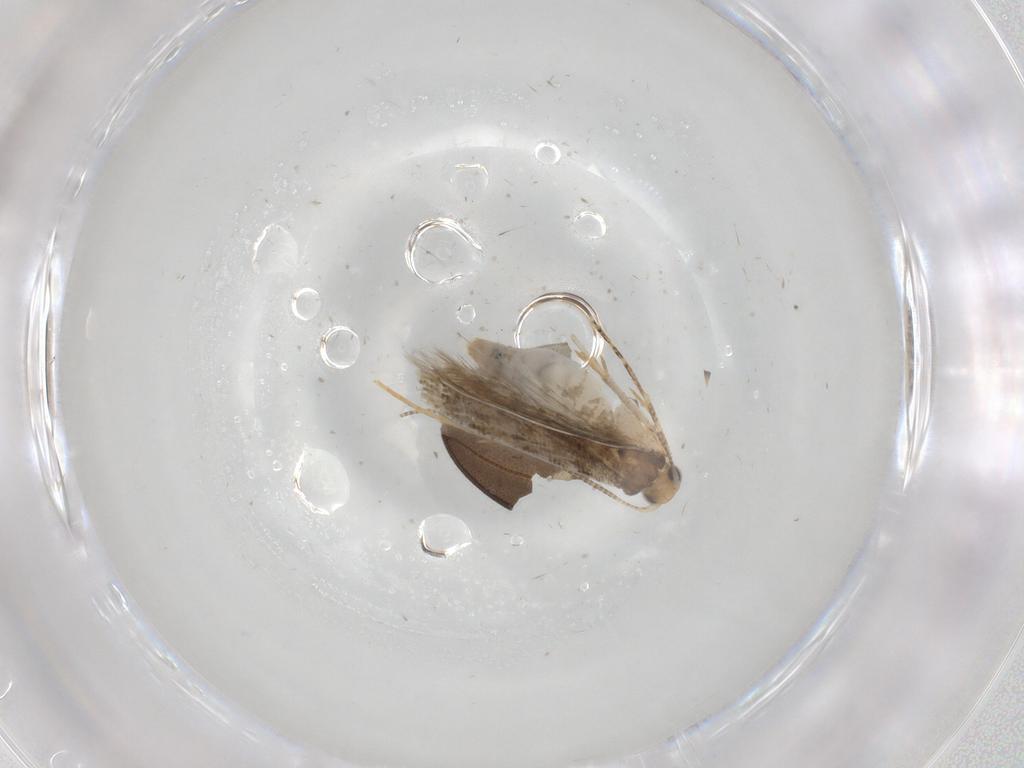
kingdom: Animalia
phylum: Arthropoda
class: Insecta
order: Lepidoptera
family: Tineidae
